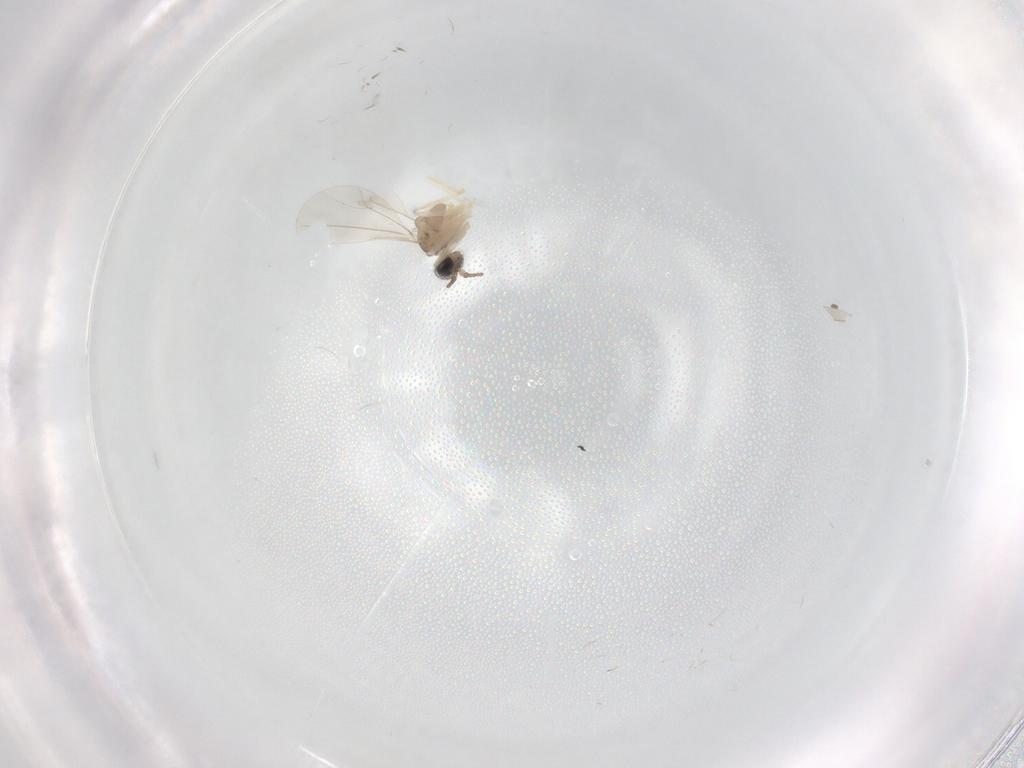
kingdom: Animalia
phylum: Arthropoda
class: Insecta
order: Diptera
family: Cecidomyiidae
